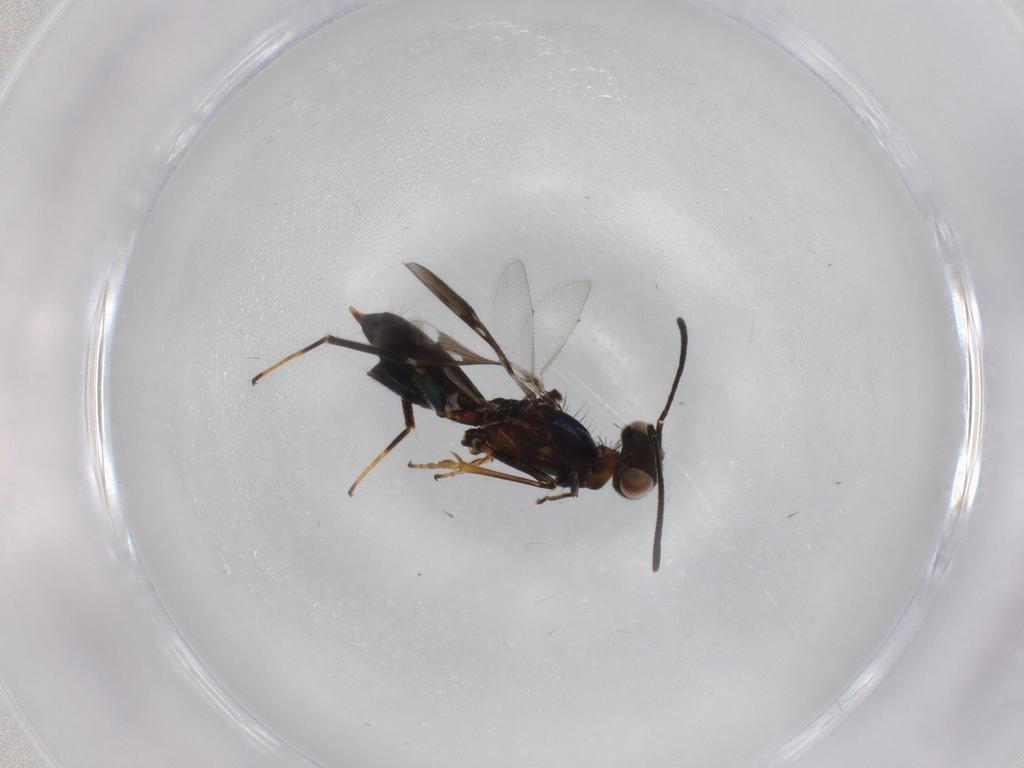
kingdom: Animalia
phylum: Arthropoda
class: Insecta
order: Hymenoptera
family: Eupelmidae
